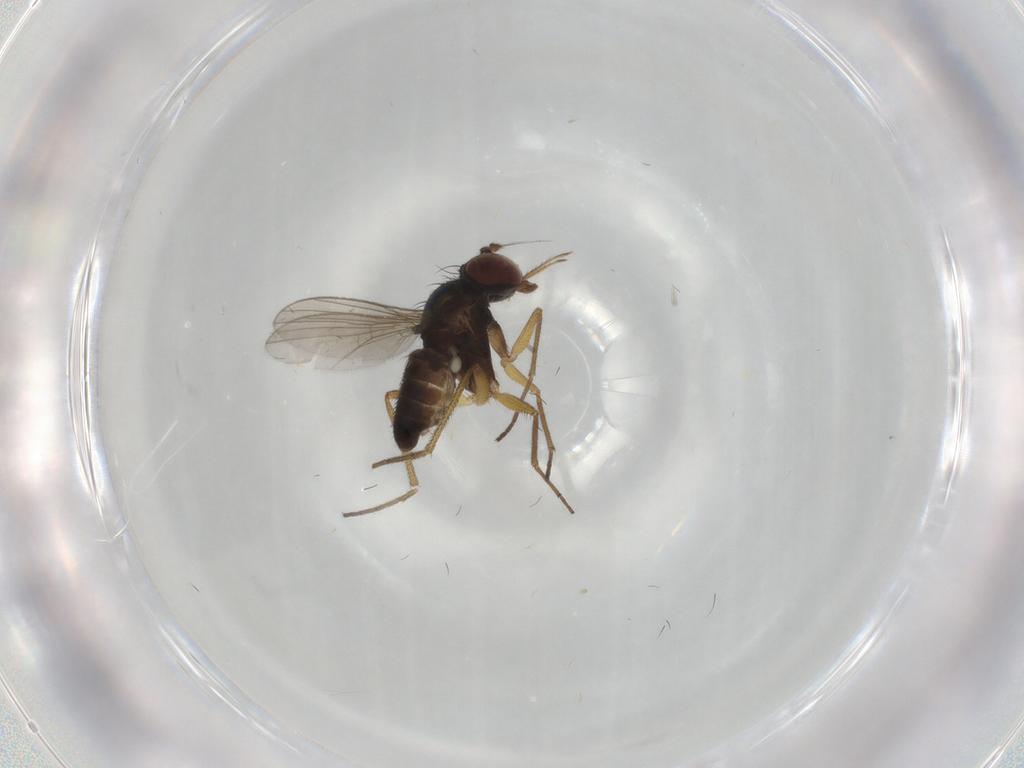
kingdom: Animalia
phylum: Arthropoda
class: Insecta
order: Diptera
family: Dolichopodidae
